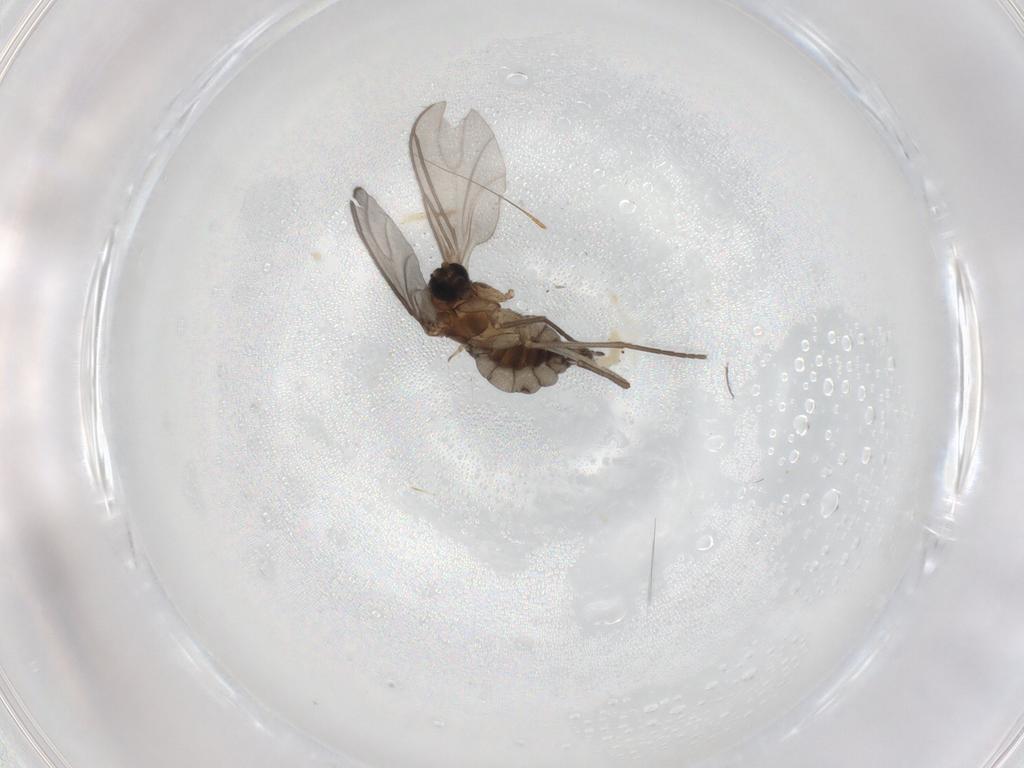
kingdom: Animalia
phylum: Arthropoda
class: Insecta
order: Diptera
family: Sciaridae
